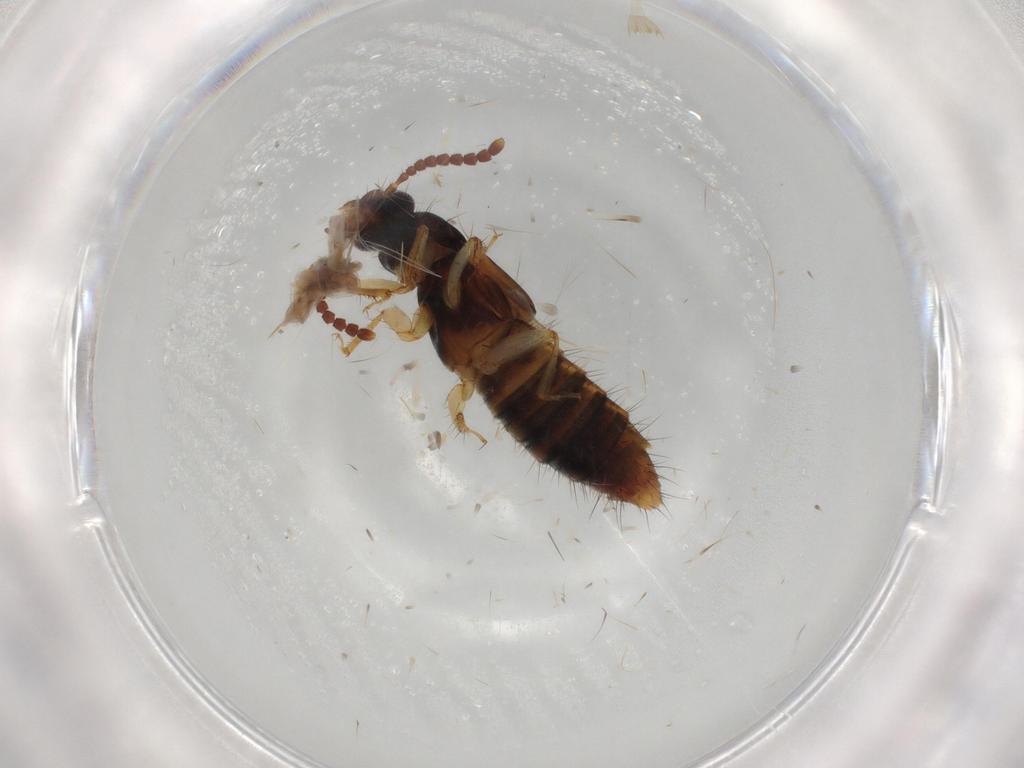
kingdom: Animalia
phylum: Arthropoda
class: Insecta
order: Coleoptera
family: Staphylinidae
